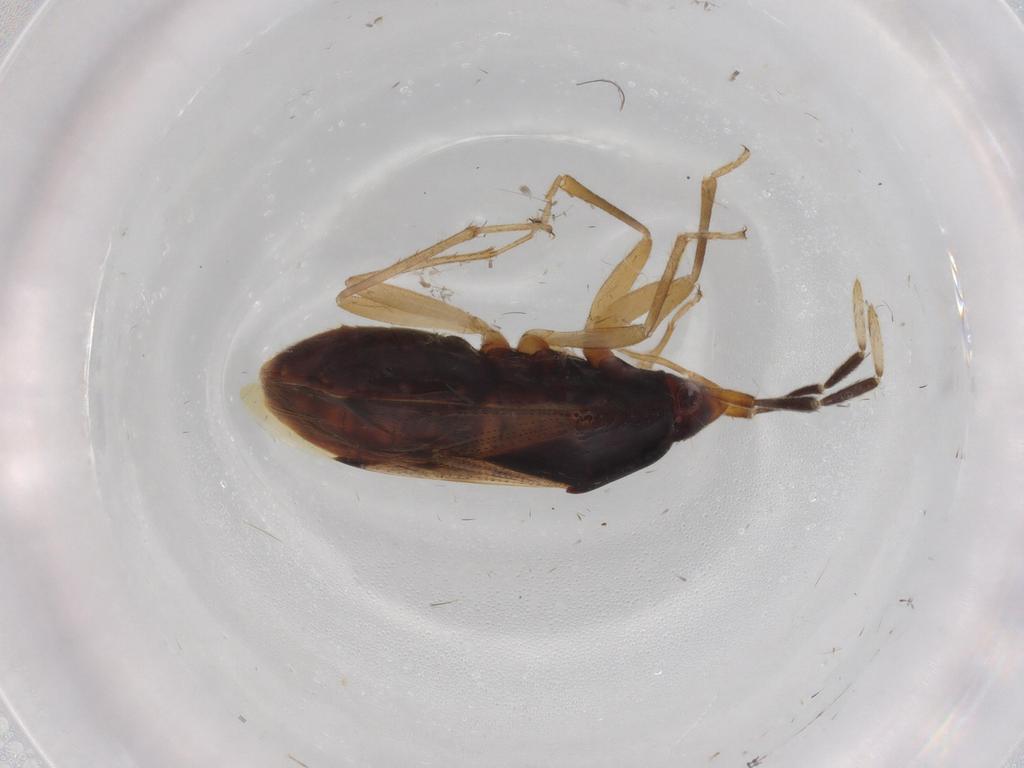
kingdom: Animalia
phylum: Arthropoda
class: Insecta
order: Hemiptera
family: Rhyparochromidae
